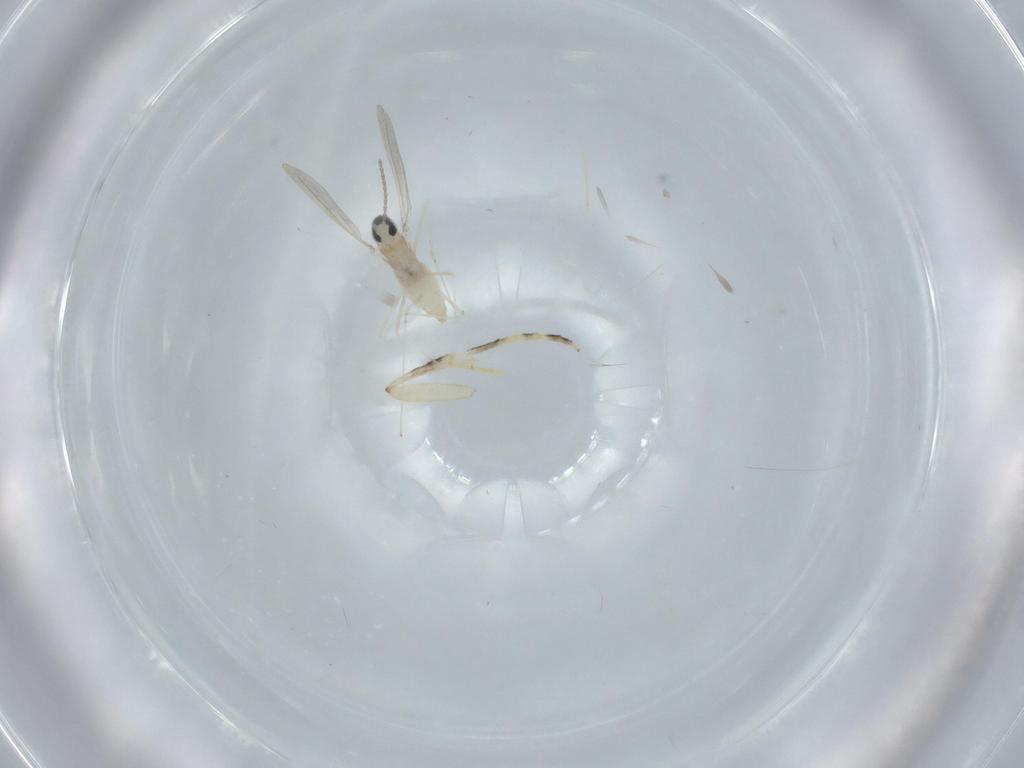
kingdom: Animalia
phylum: Arthropoda
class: Insecta
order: Diptera
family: Cecidomyiidae
